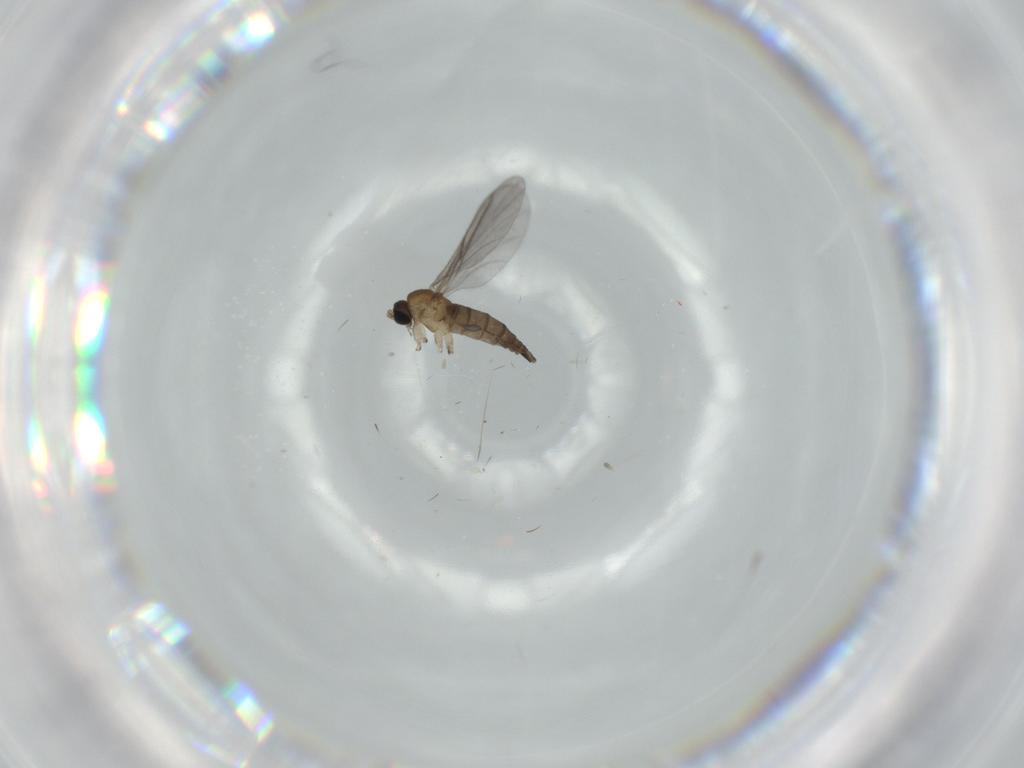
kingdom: Animalia
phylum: Arthropoda
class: Insecta
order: Diptera
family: Sciaridae
